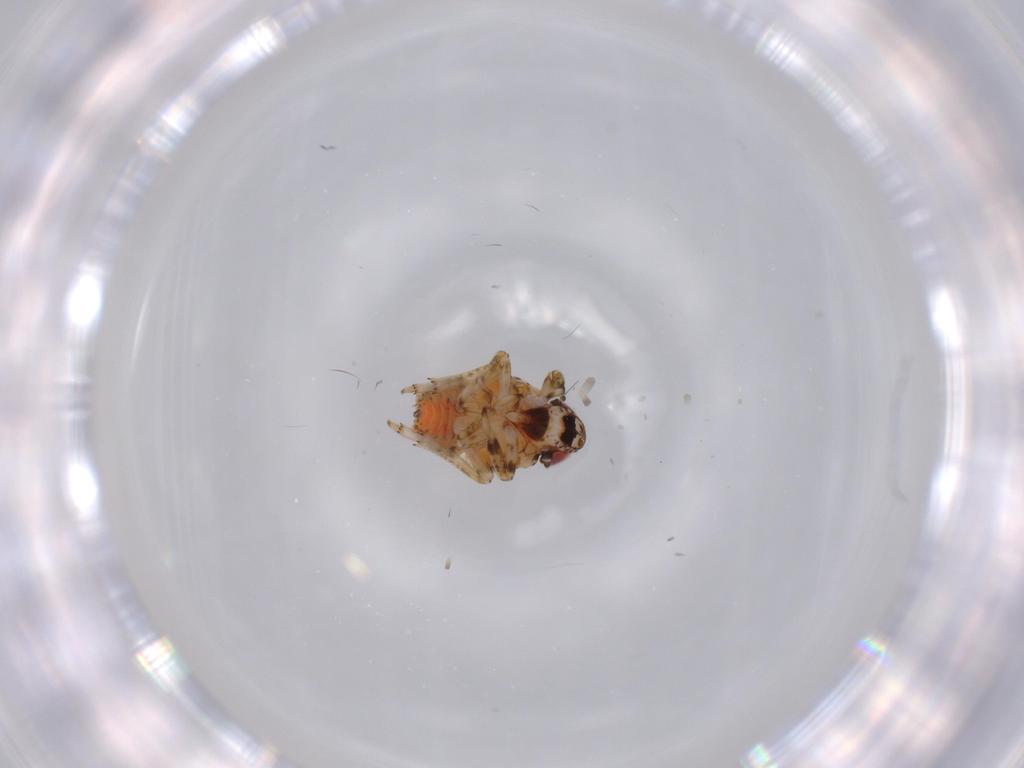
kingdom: Animalia
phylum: Arthropoda
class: Insecta
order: Hemiptera
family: Issidae
